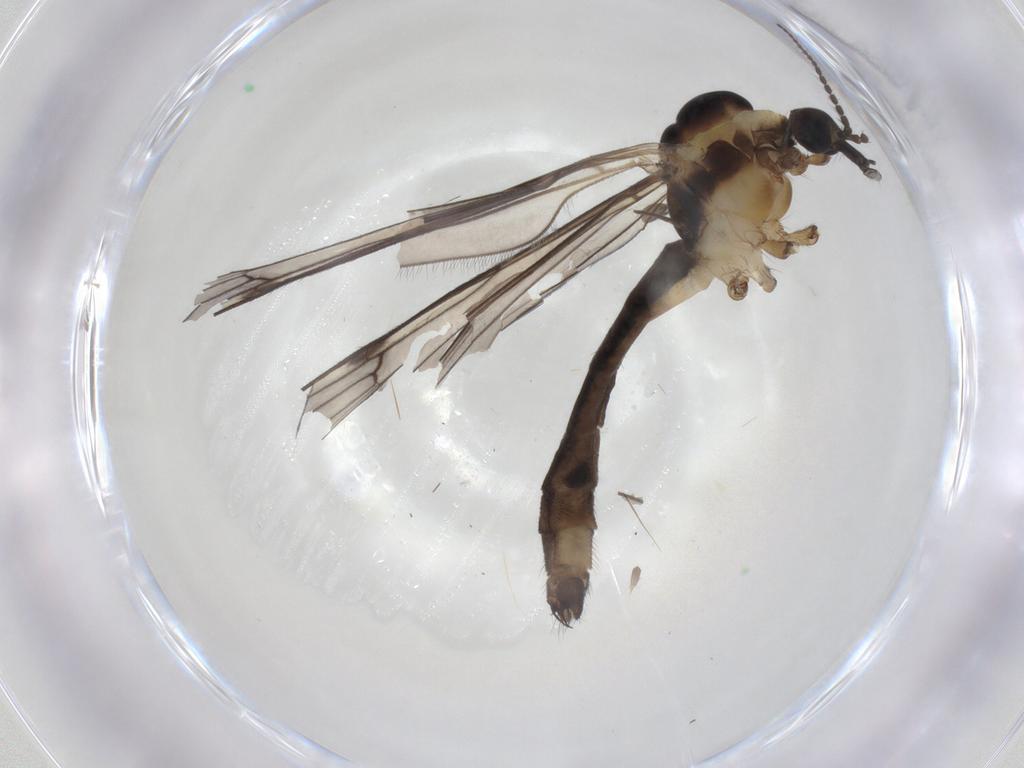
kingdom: Animalia
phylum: Arthropoda
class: Insecta
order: Diptera
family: Limoniidae
